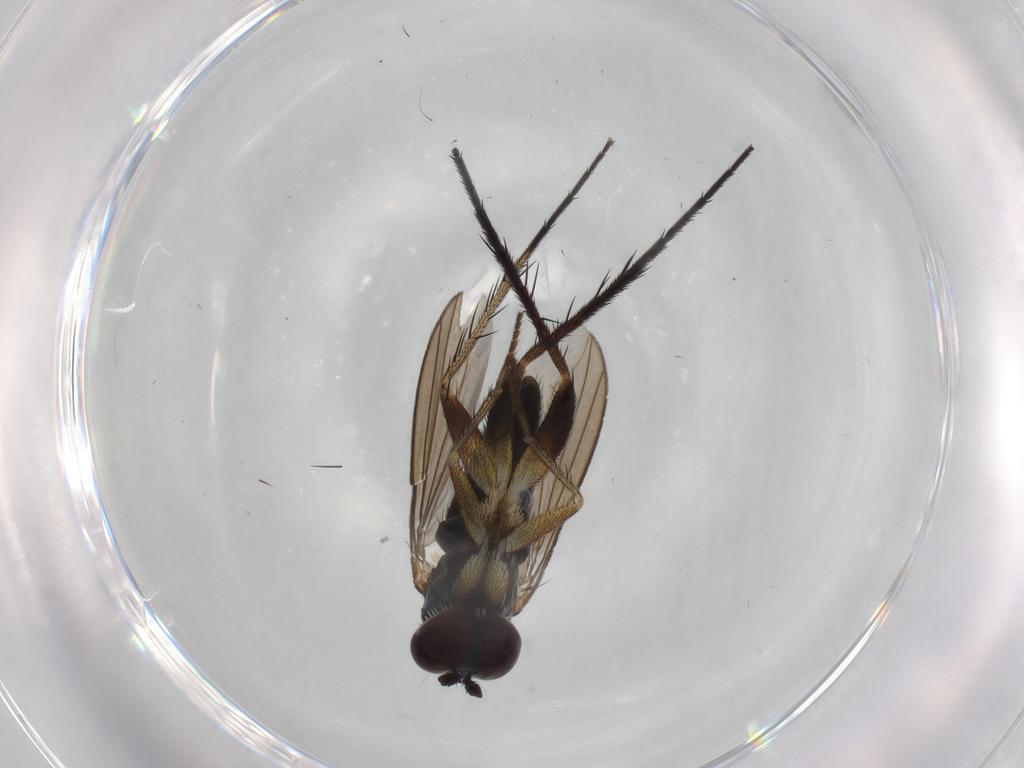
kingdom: Animalia
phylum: Arthropoda
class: Insecta
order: Diptera
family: Dolichopodidae
